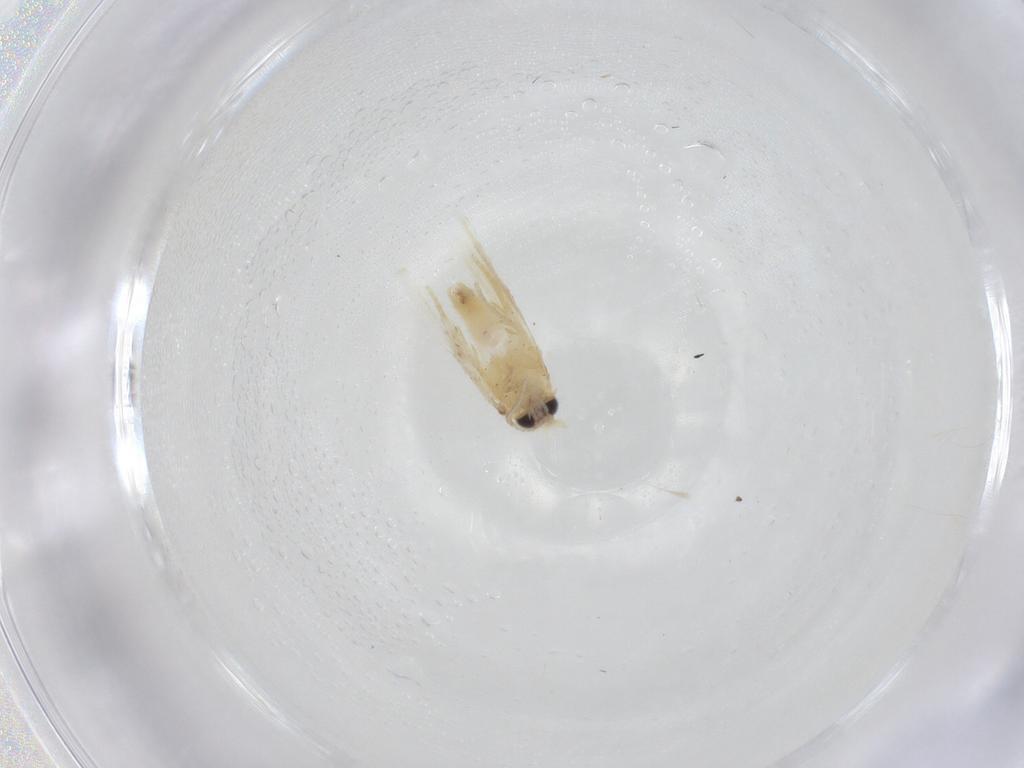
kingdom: Animalia
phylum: Arthropoda
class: Insecta
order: Lepidoptera
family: Nepticulidae
